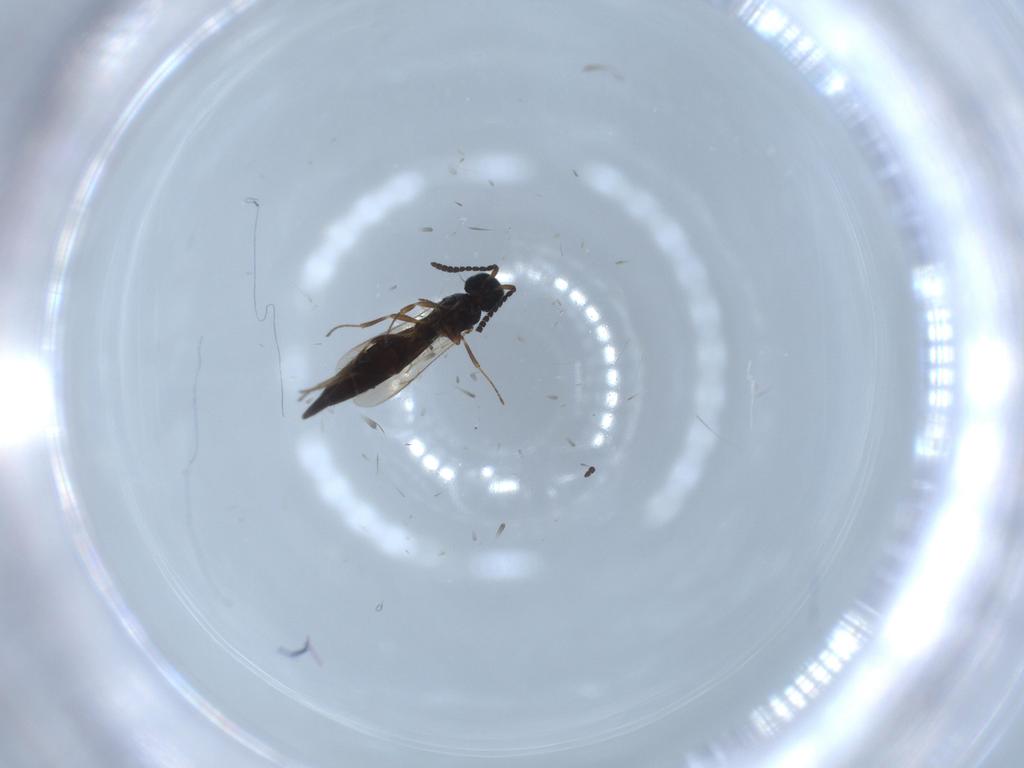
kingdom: Animalia
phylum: Arthropoda
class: Insecta
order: Hymenoptera
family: Scelionidae
